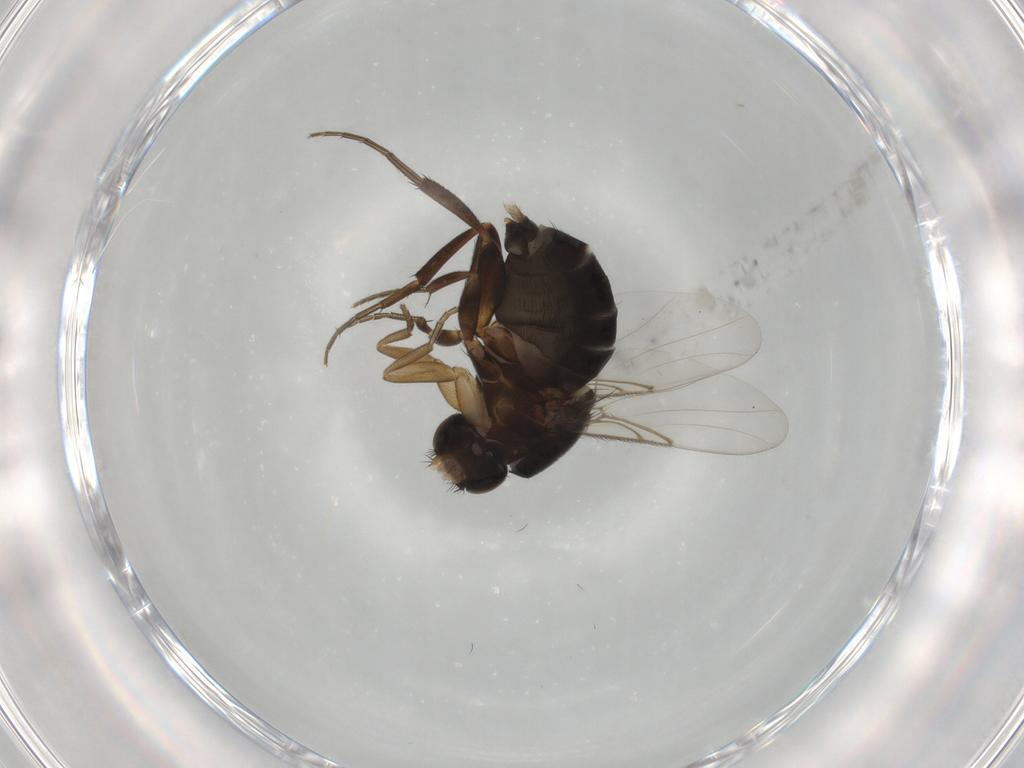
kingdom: Animalia
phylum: Arthropoda
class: Insecta
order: Diptera
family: Phoridae
